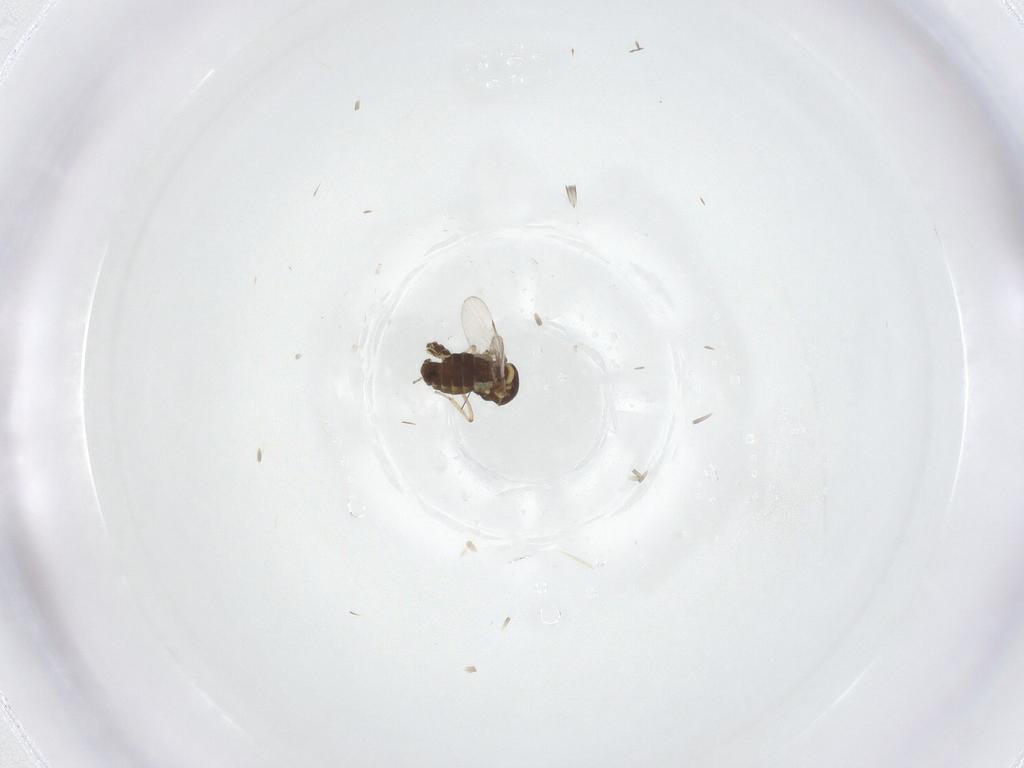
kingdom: Animalia
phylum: Arthropoda
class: Insecta
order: Diptera
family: Ceratopogonidae
